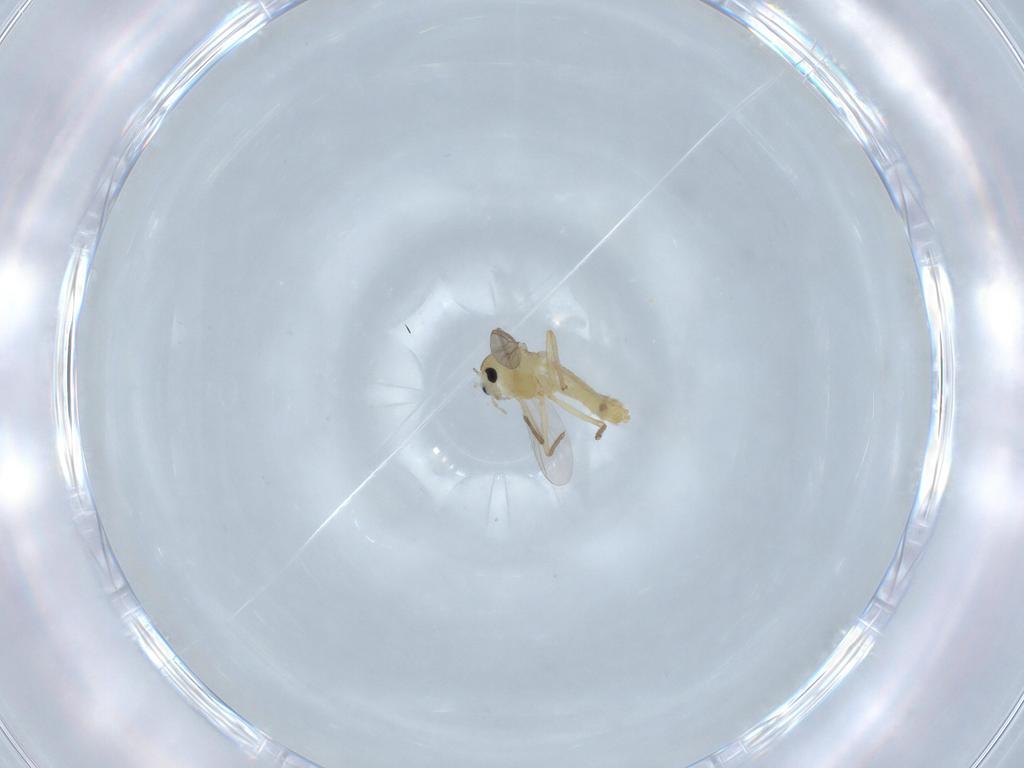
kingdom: Animalia
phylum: Arthropoda
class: Insecta
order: Diptera
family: Chironomidae
